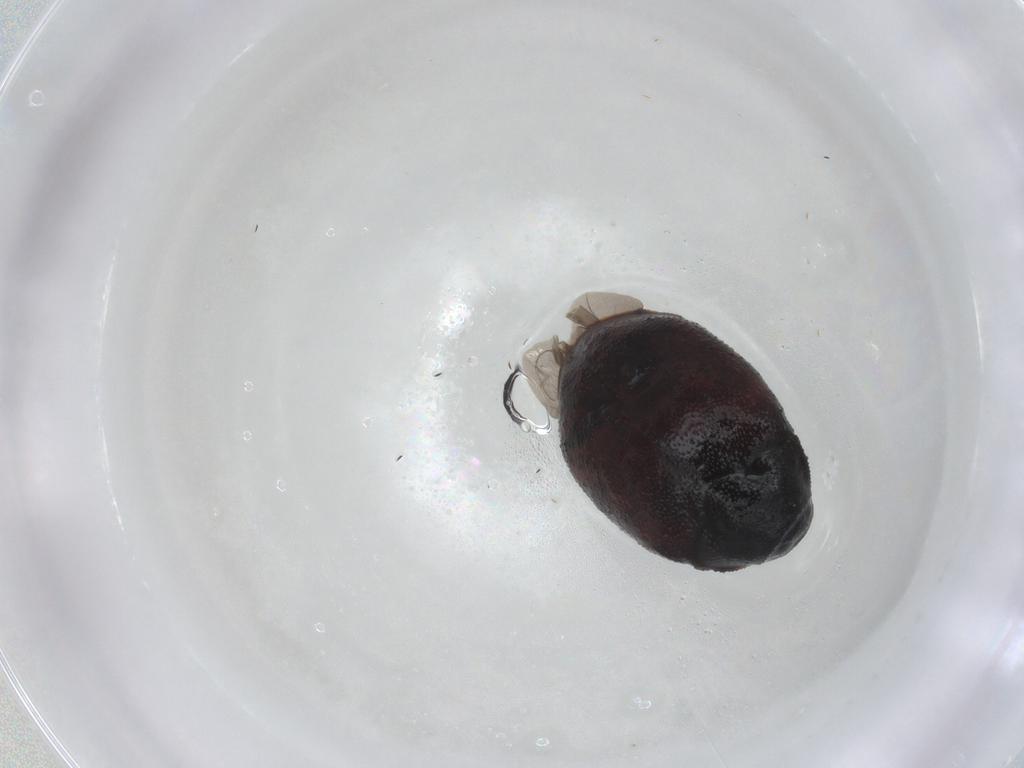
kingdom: Animalia
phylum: Arthropoda
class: Insecta
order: Coleoptera
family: Dermestidae
